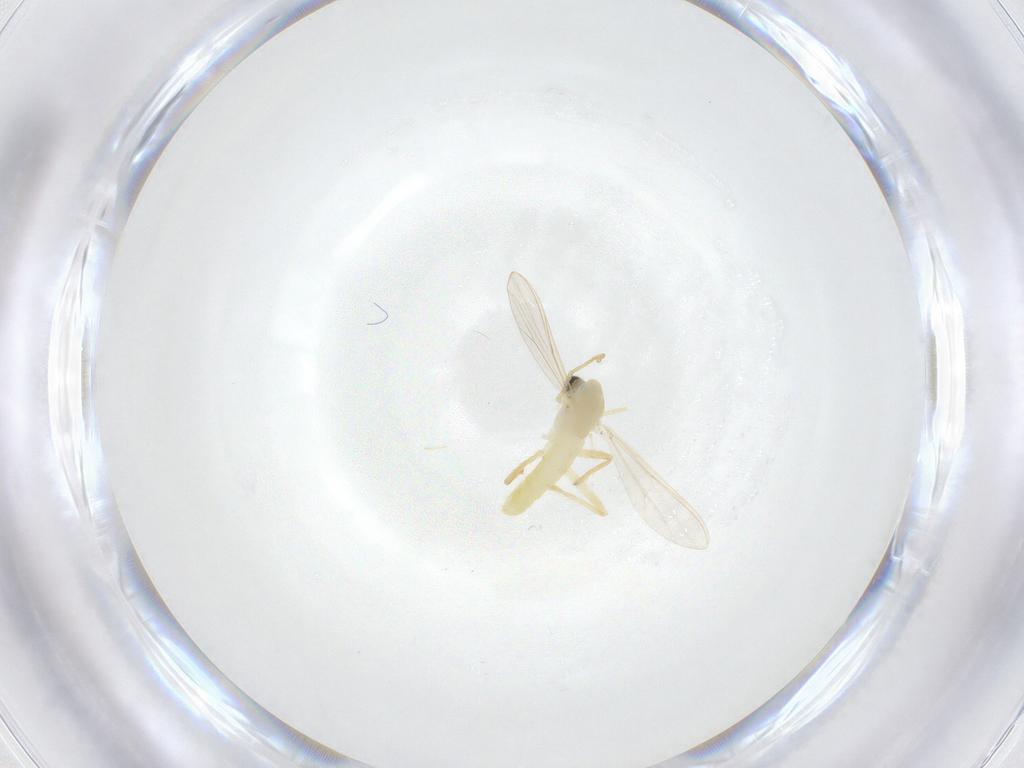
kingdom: Animalia
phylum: Arthropoda
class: Insecta
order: Diptera
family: Chironomidae
